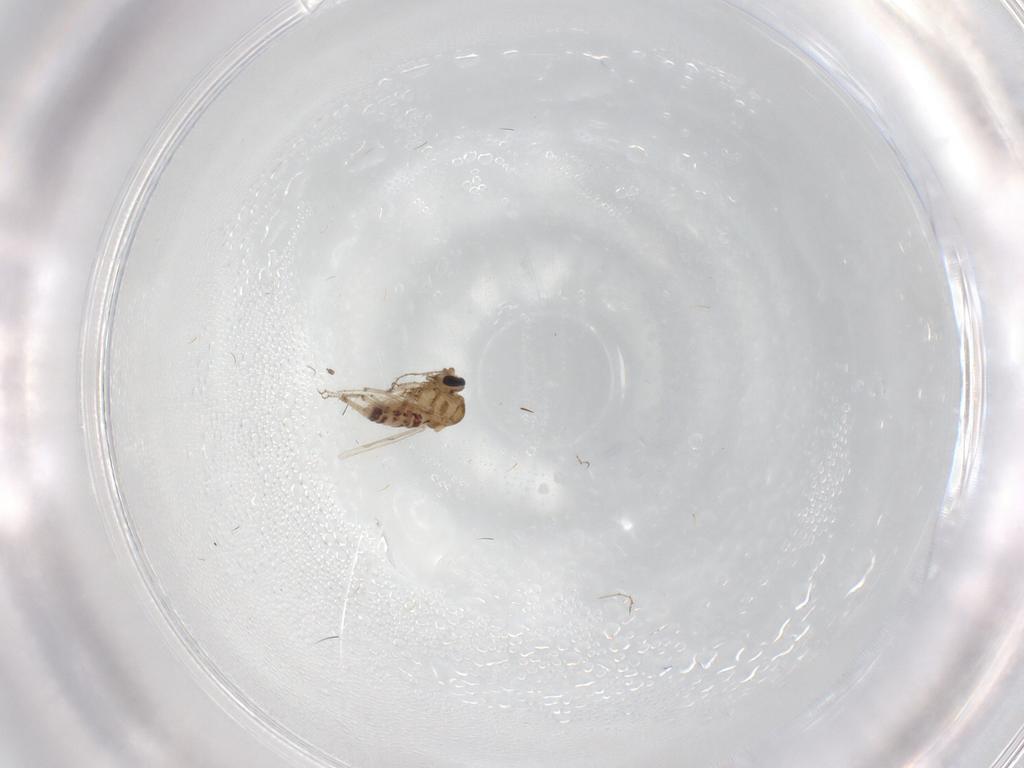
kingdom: Animalia
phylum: Arthropoda
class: Insecta
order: Diptera
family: Ceratopogonidae
